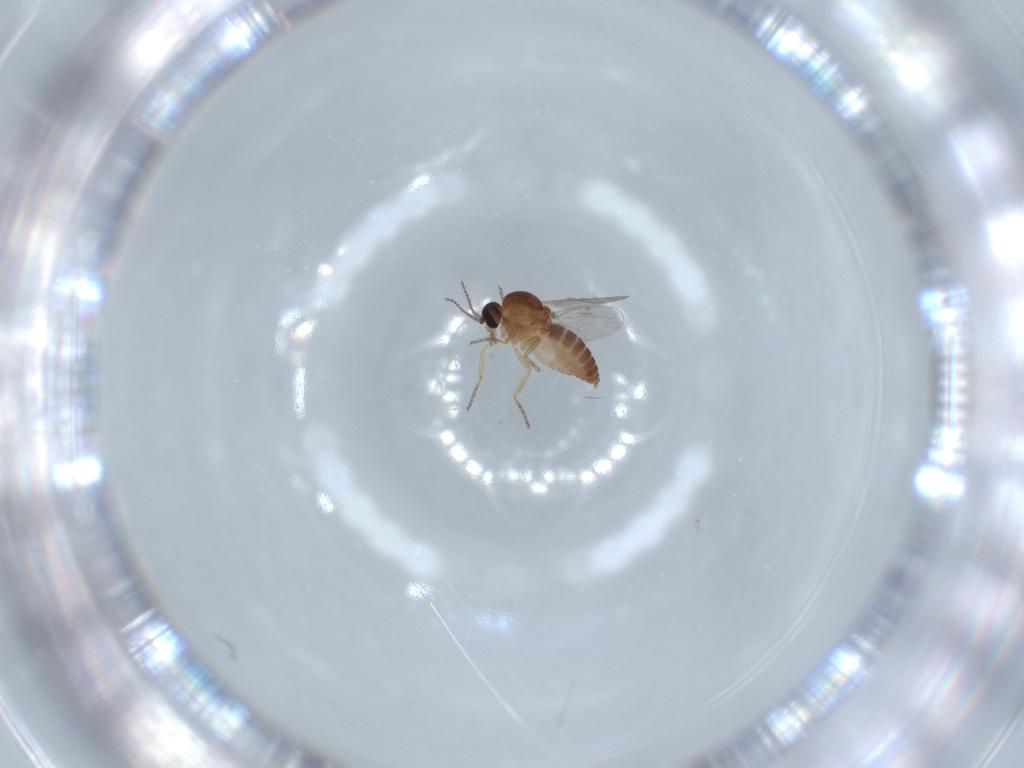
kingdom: Animalia
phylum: Arthropoda
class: Insecta
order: Diptera
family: Ceratopogonidae
